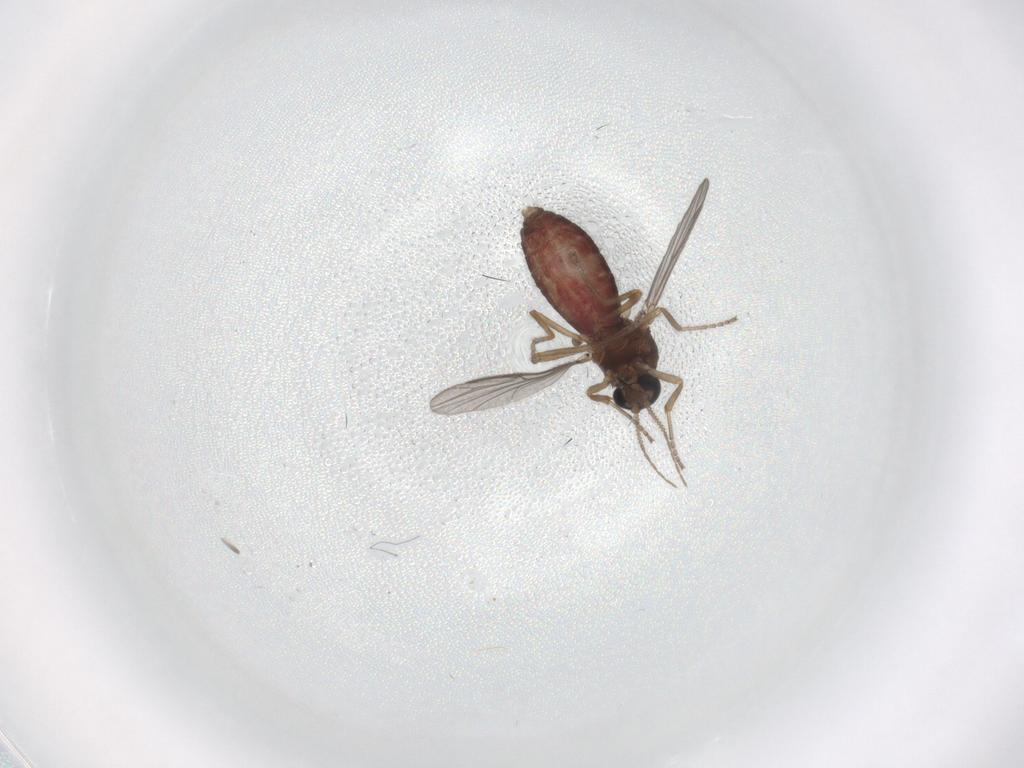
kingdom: Animalia
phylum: Arthropoda
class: Insecta
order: Diptera
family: Ceratopogonidae
